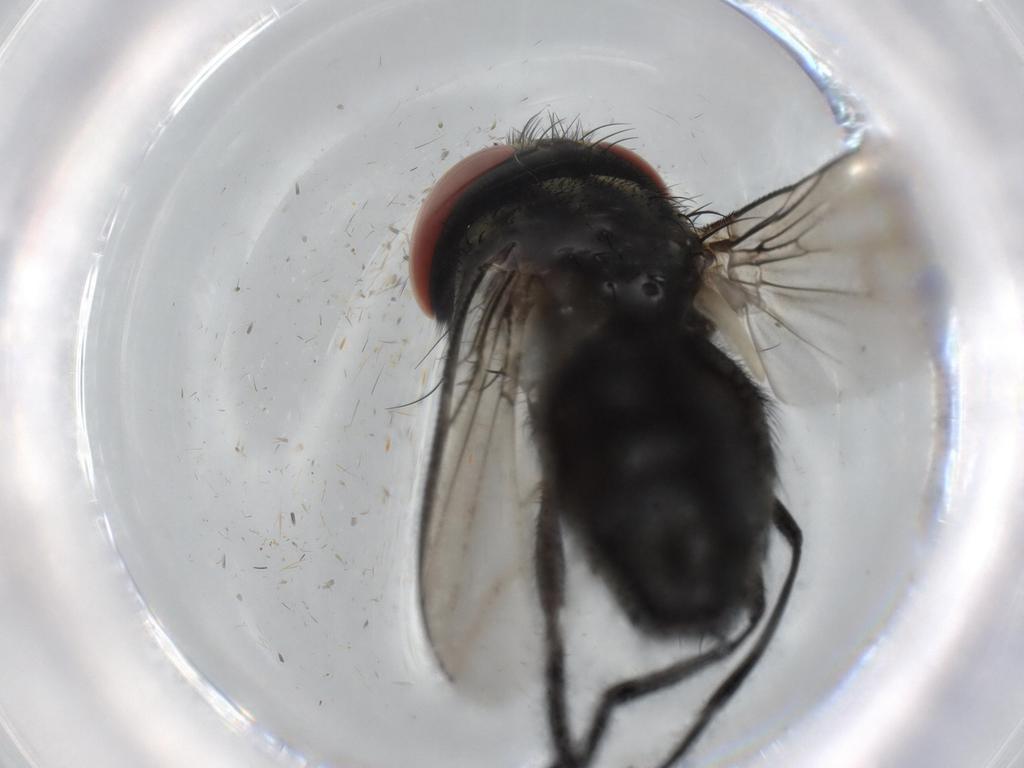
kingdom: Animalia
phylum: Arthropoda
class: Insecta
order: Diptera
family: Cecidomyiidae
